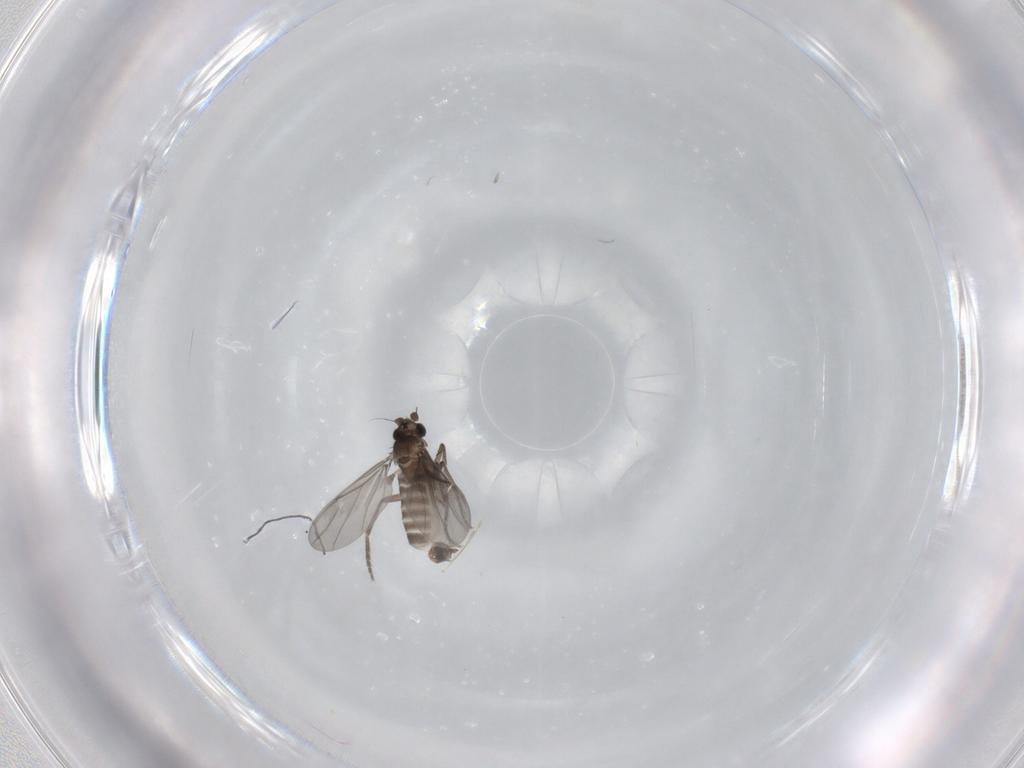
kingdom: Animalia
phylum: Arthropoda
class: Insecta
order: Diptera
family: Phoridae
